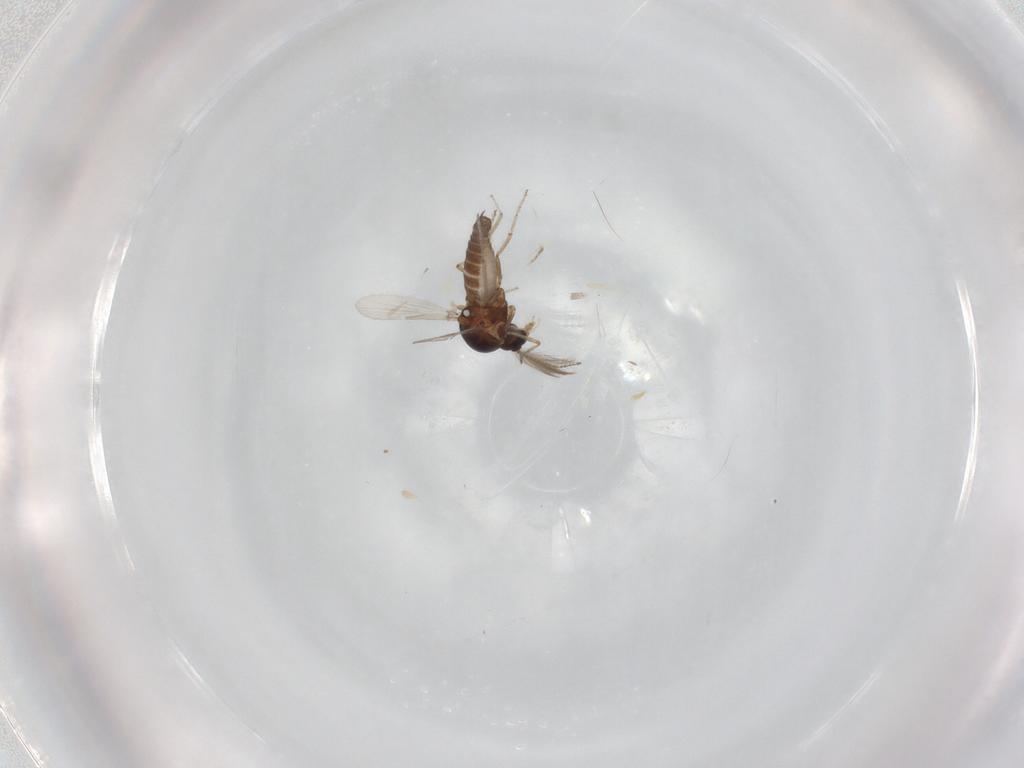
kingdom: Animalia
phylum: Arthropoda
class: Insecta
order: Diptera
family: Ceratopogonidae
